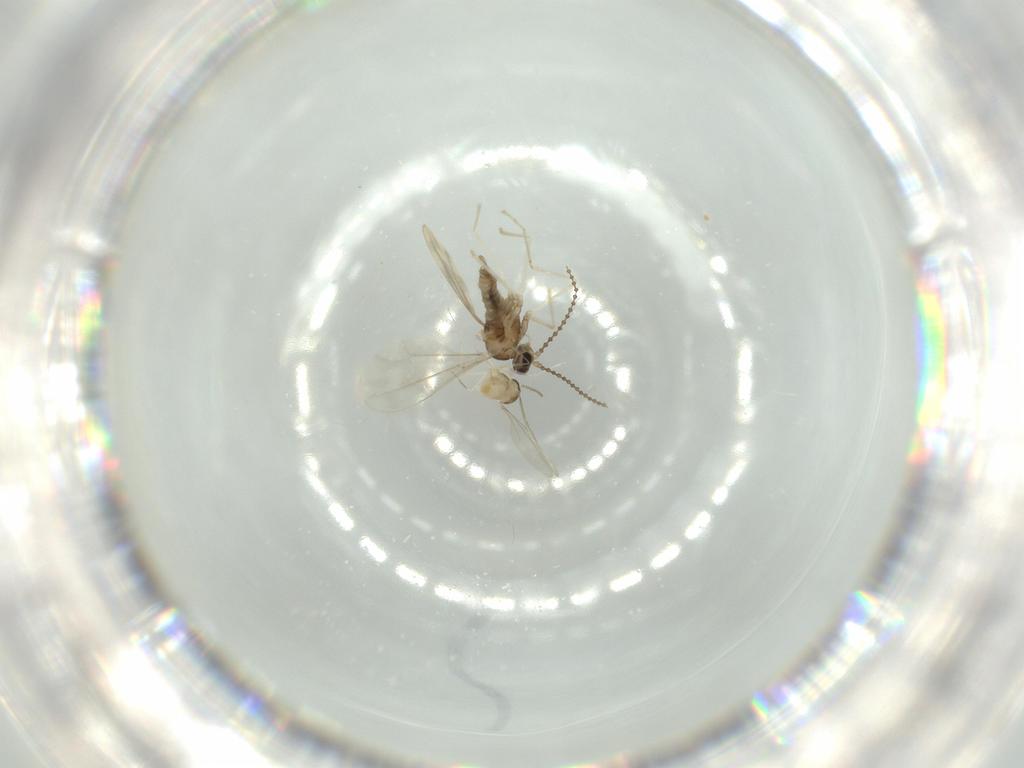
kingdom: Animalia
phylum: Arthropoda
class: Insecta
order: Diptera
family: Cecidomyiidae
